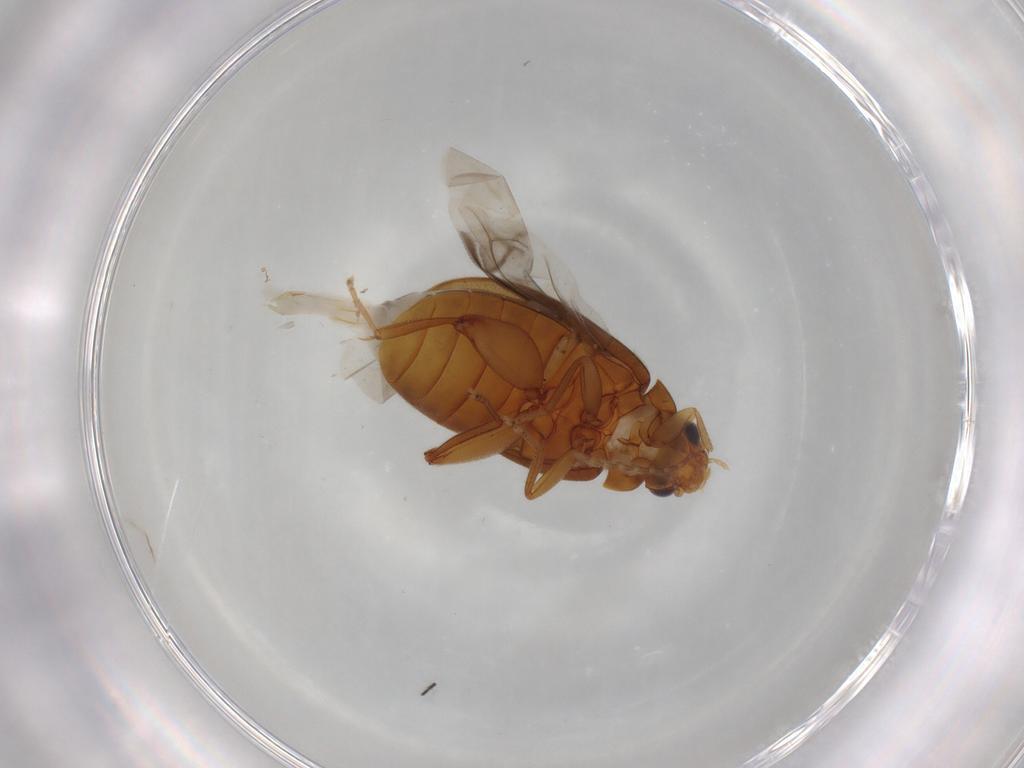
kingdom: Animalia
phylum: Arthropoda
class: Insecta
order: Coleoptera
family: Scirtidae
